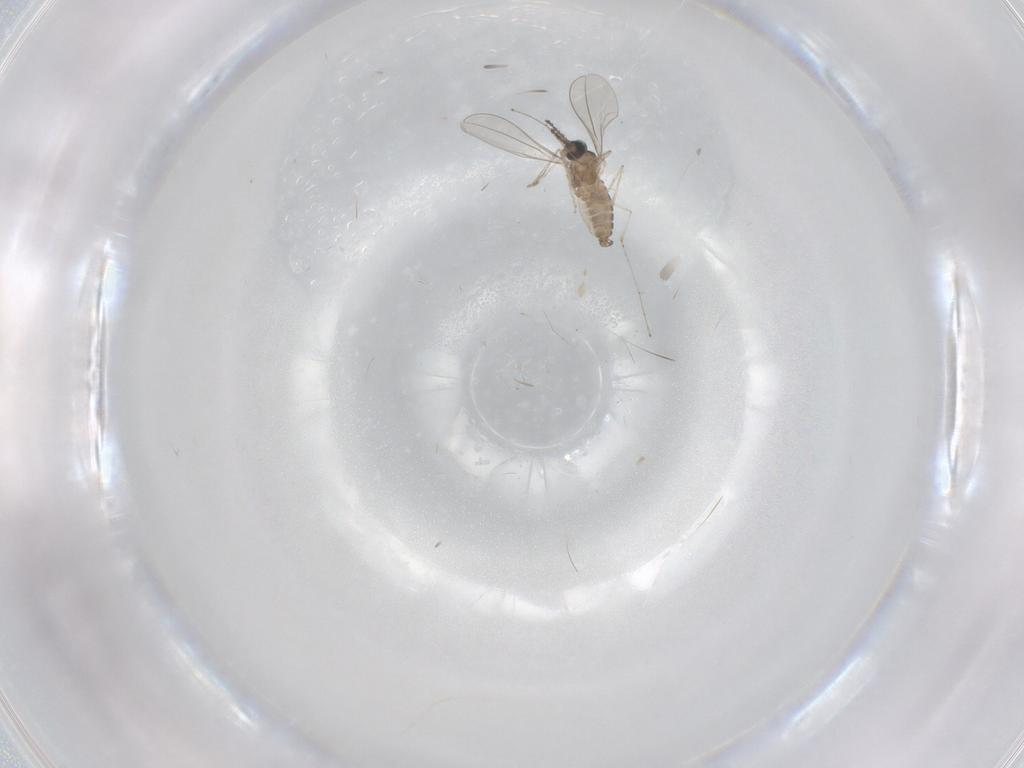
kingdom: Animalia
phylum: Arthropoda
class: Insecta
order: Diptera
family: Cecidomyiidae
